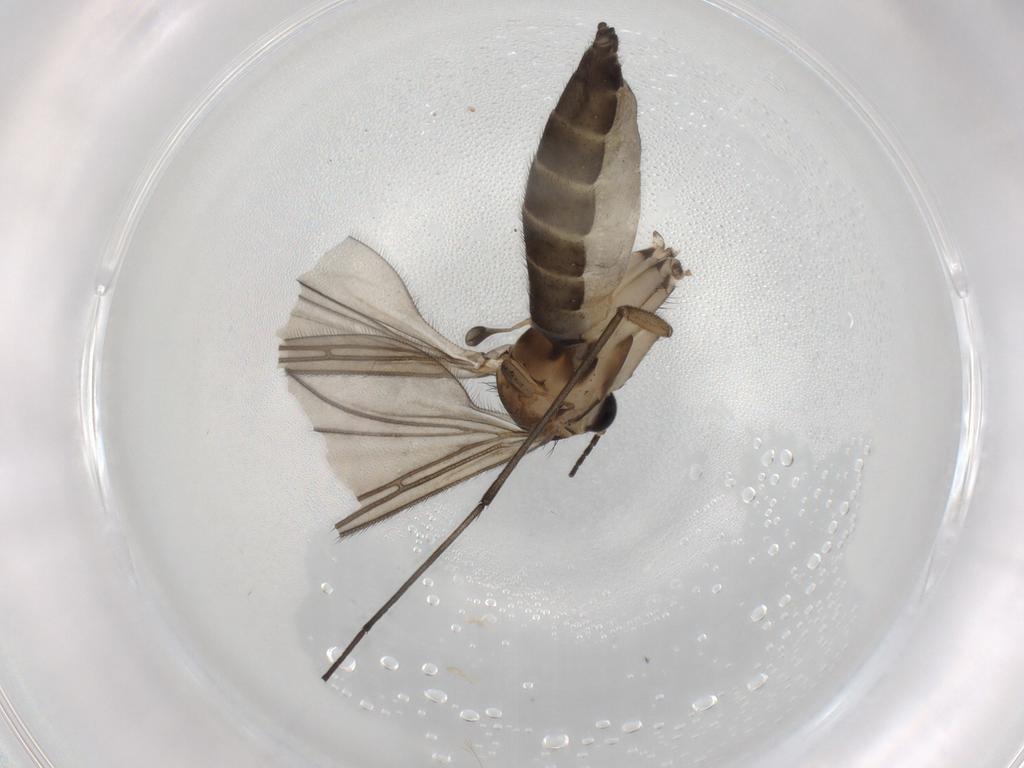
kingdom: Animalia
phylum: Arthropoda
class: Insecta
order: Diptera
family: Sciaridae
